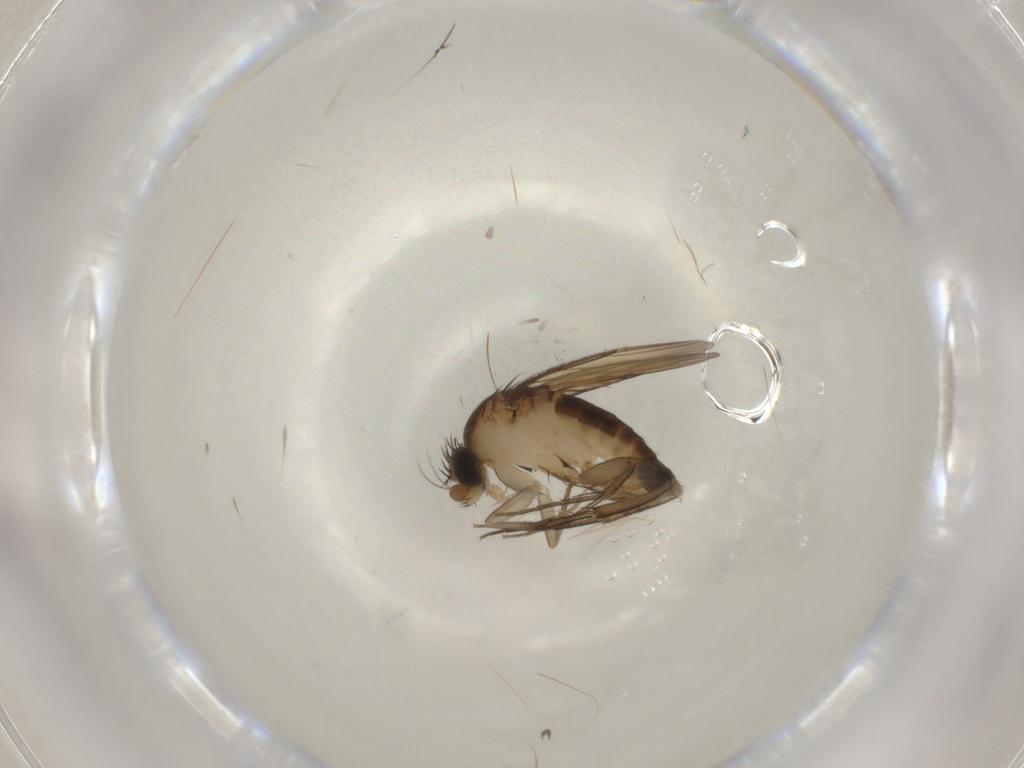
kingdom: Animalia
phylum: Arthropoda
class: Insecta
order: Diptera
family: Phoridae
